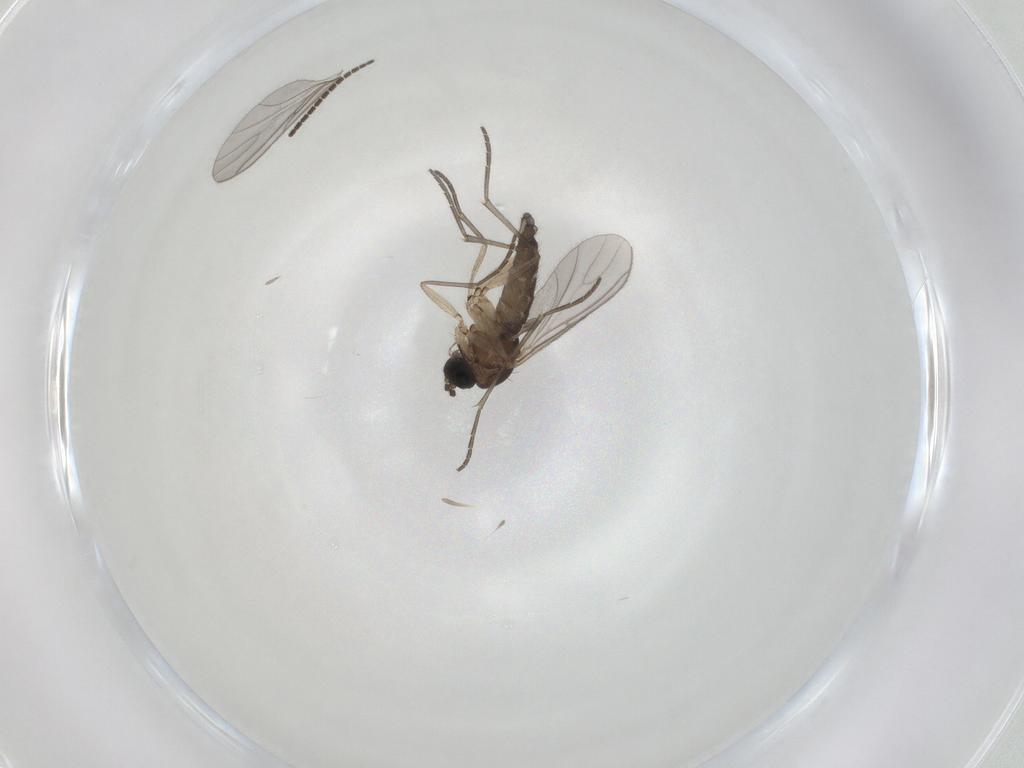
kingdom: Animalia
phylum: Arthropoda
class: Insecta
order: Diptera
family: Sciaridae
